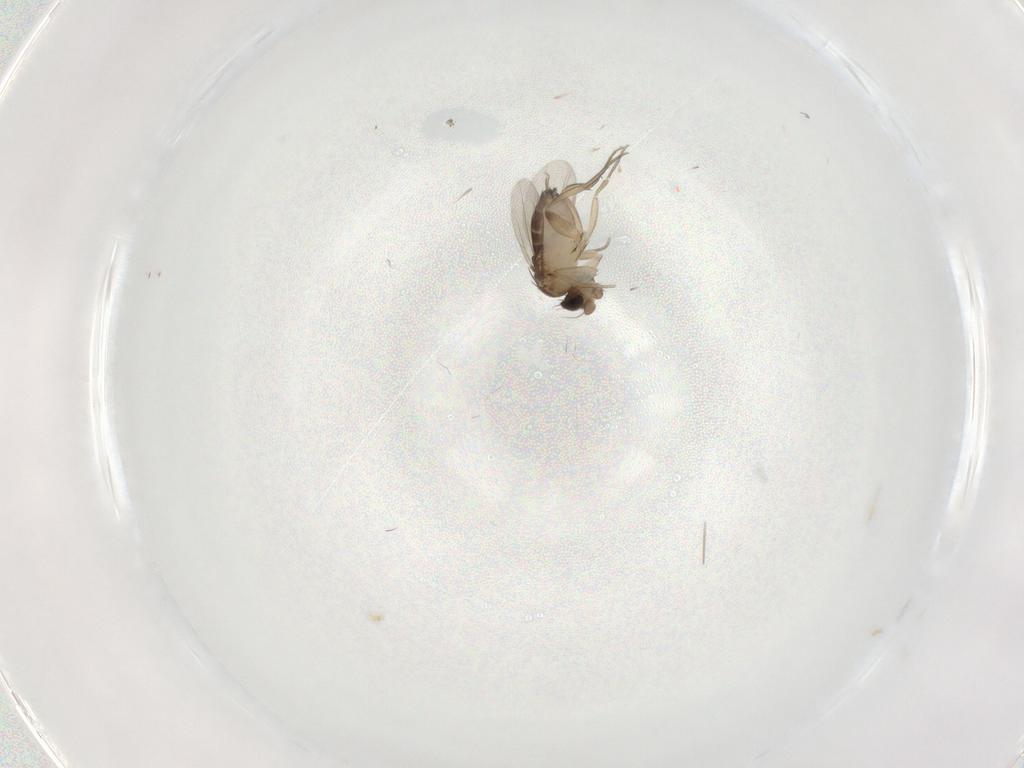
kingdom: Animalia
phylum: Arthropoda
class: Insecta
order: Diptera
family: Phoridae
